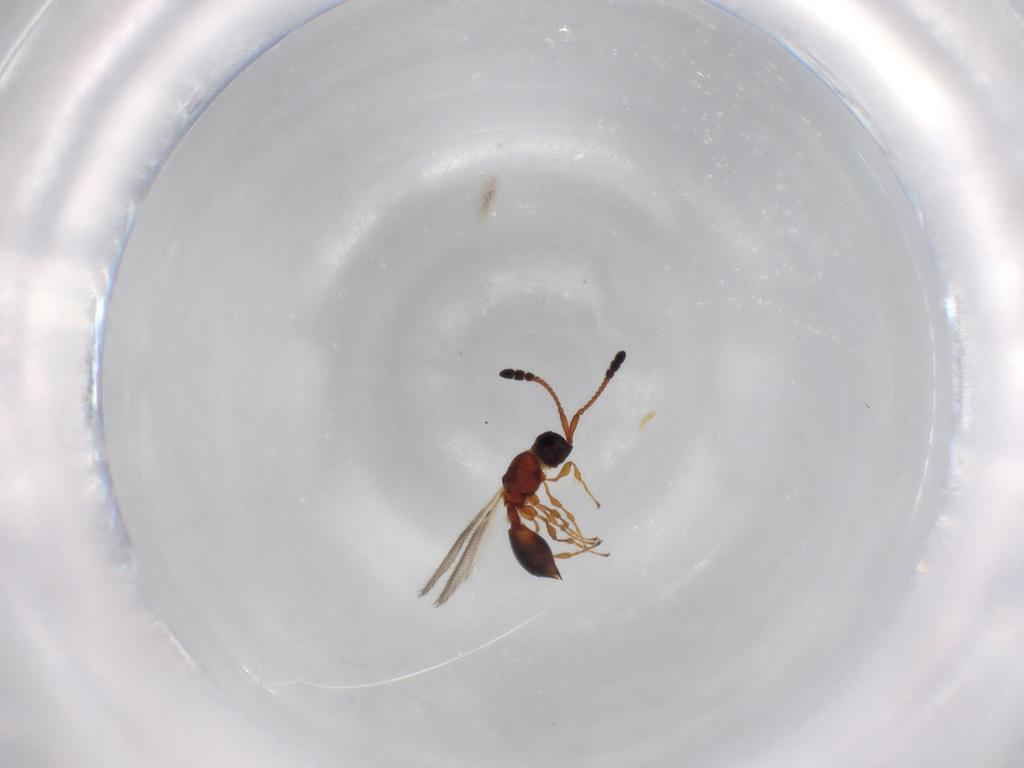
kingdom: Animalia
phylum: Arthropoda
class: Insecta
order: Hymenoptera
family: Diapriidae
